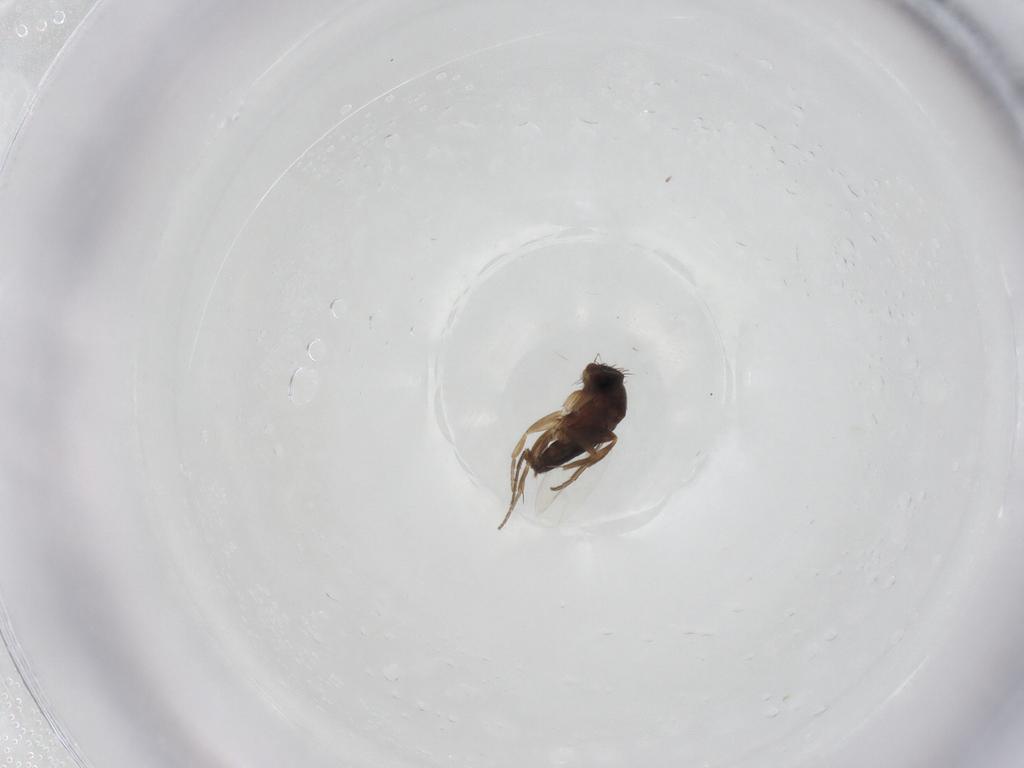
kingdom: Animalia
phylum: Arthropoda
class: Insecta
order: Diptera
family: Phoridae
